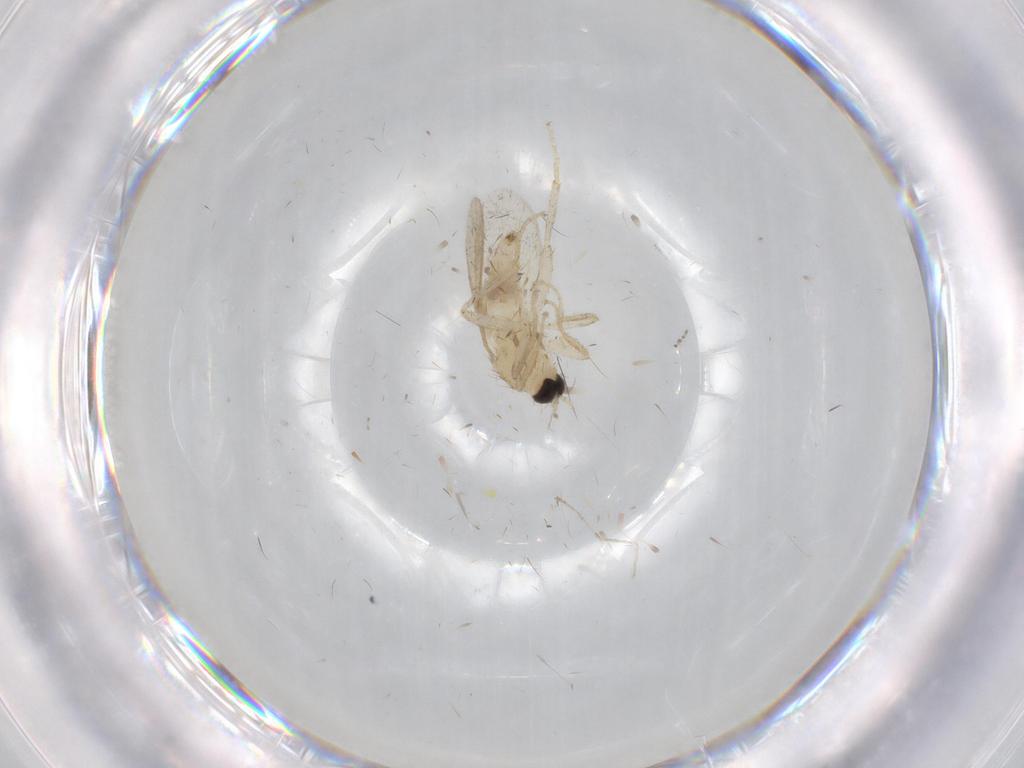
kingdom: Animalia
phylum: Arthropoda
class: Insecta
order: Diptera
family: Cecidomyiidae
